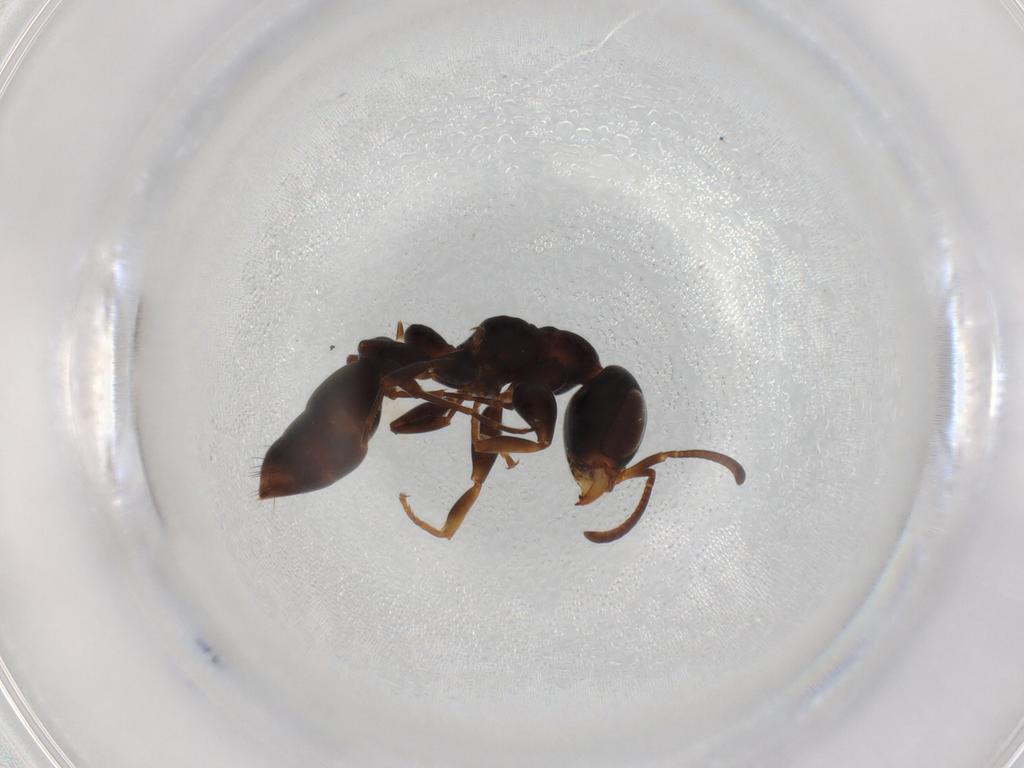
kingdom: Animalia
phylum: Arthropoda
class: Insecta
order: Hymenoptera
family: Formicidae
